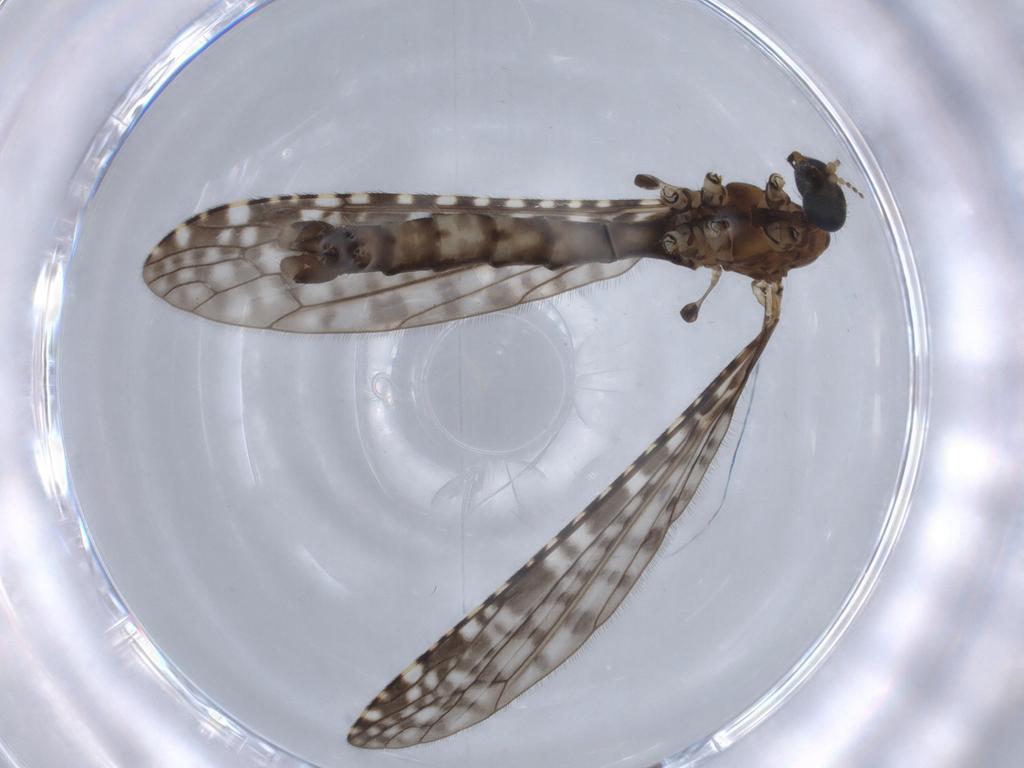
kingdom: Animalia
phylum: Arthropoda
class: Insecta
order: Diptera
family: Limoniidae
